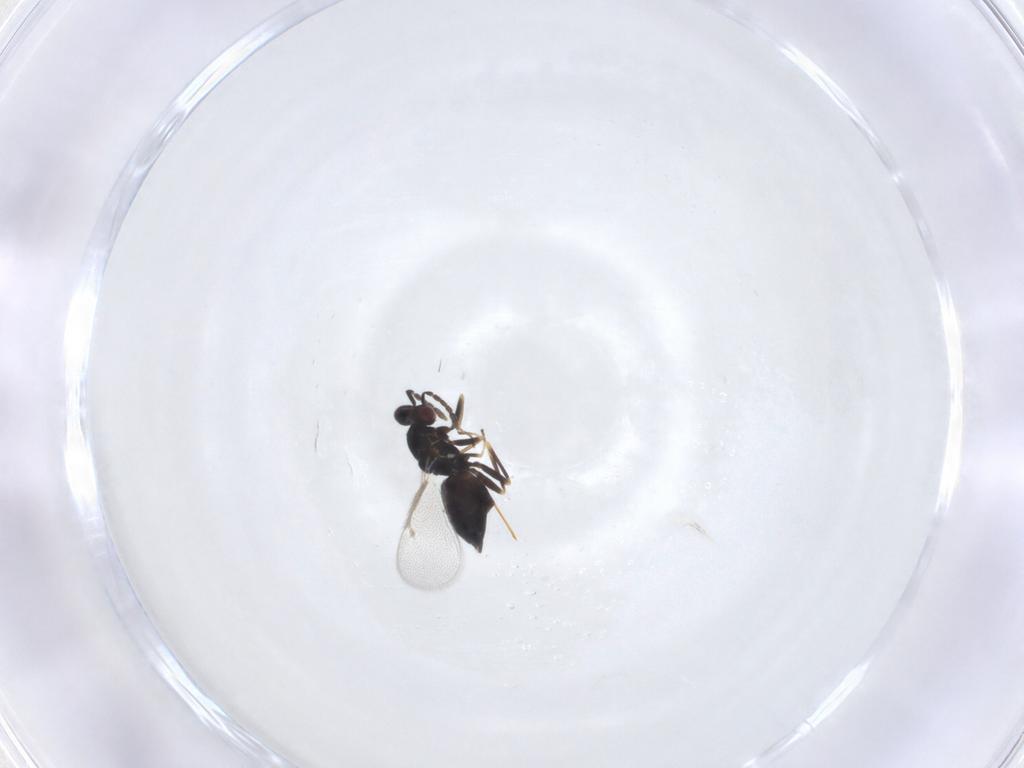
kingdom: Animalia
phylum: Arthropoda
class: Insecta
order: Hymenoptera
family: Eulophidae
